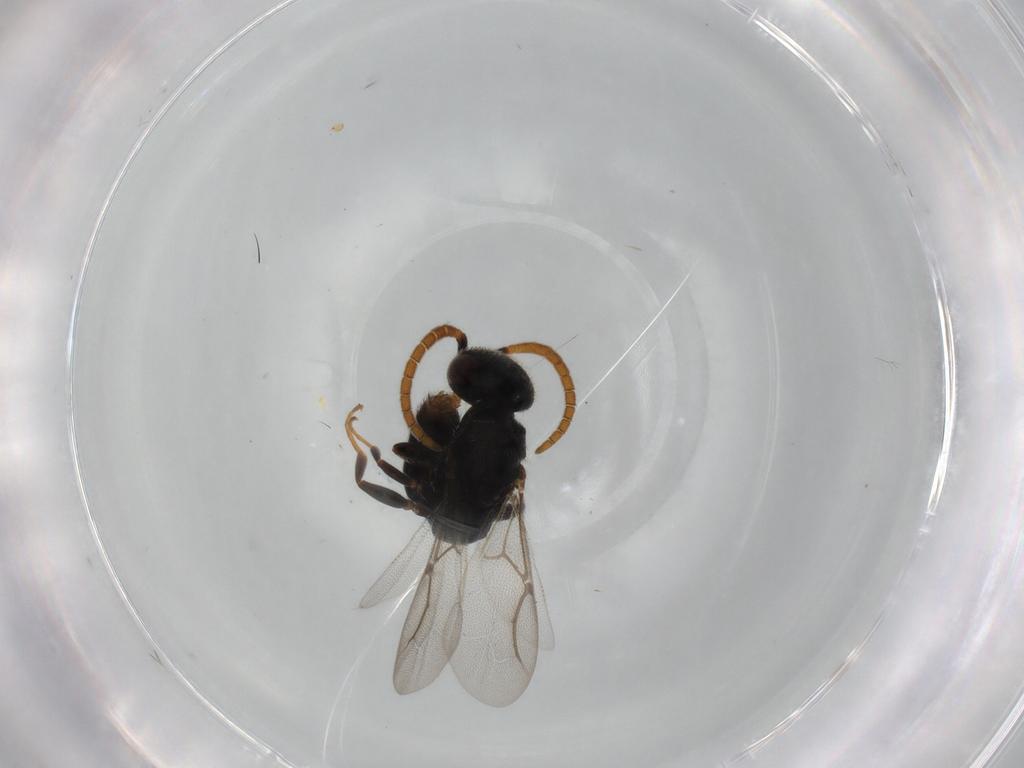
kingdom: Animalia
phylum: Arthropoda
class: Insecta
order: Hymenoptera
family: Bethylidae
